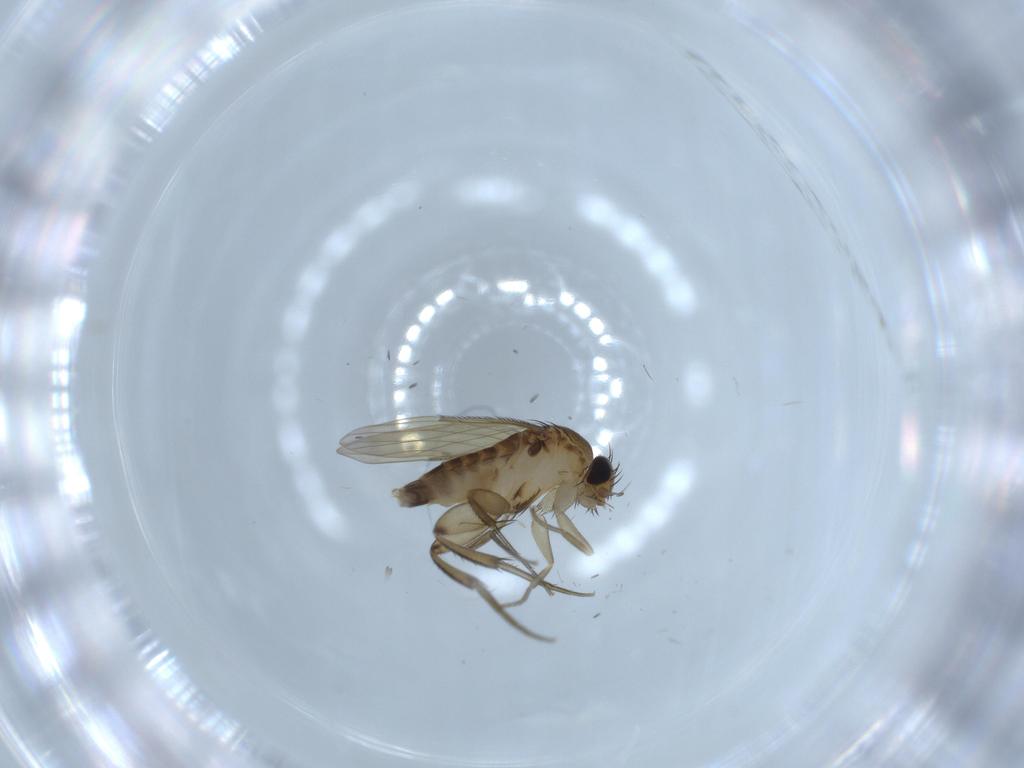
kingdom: Animalia
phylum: Arthropoda
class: Insecta
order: Diptera
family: Phoridae
